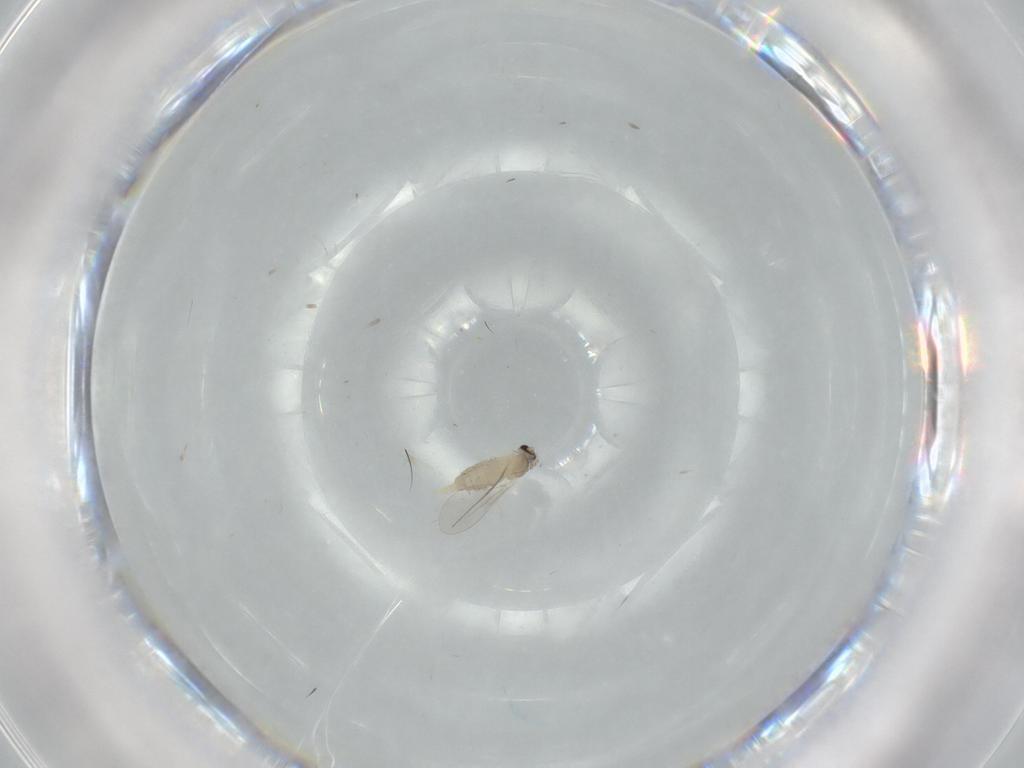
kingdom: Animalia
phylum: Arthropoda
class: Insecta
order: Diptera
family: Cecidomyiidae
